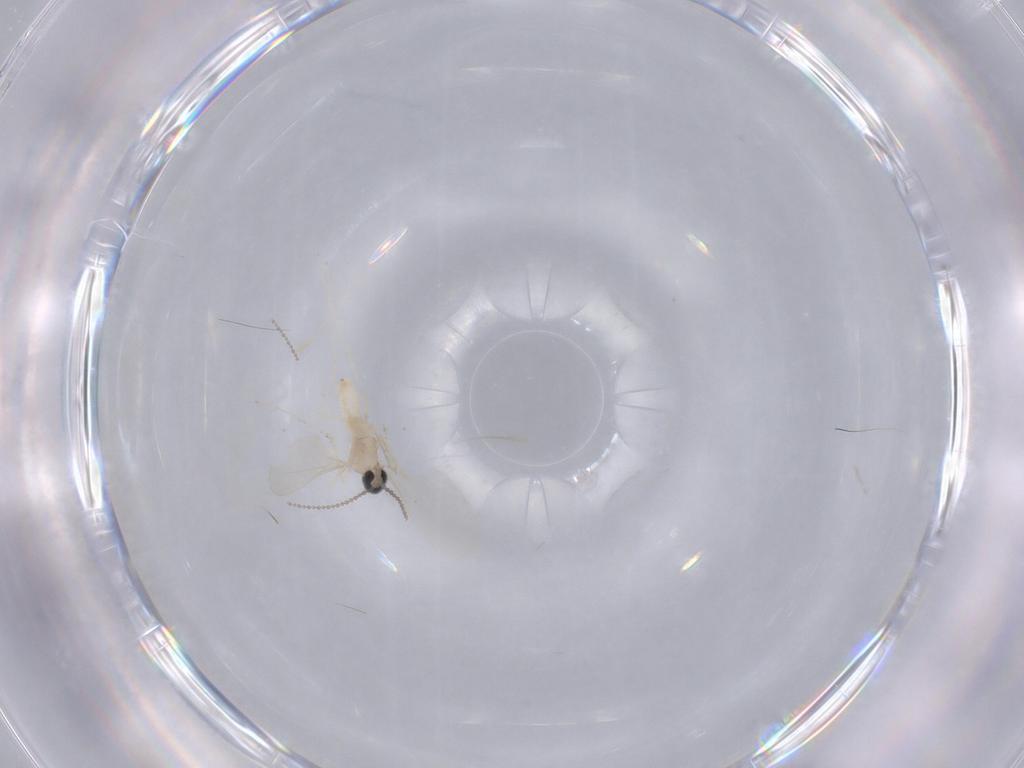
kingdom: Animalia
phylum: Arthropoda
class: Insecta
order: Diptera
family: Cecidomyiidae
